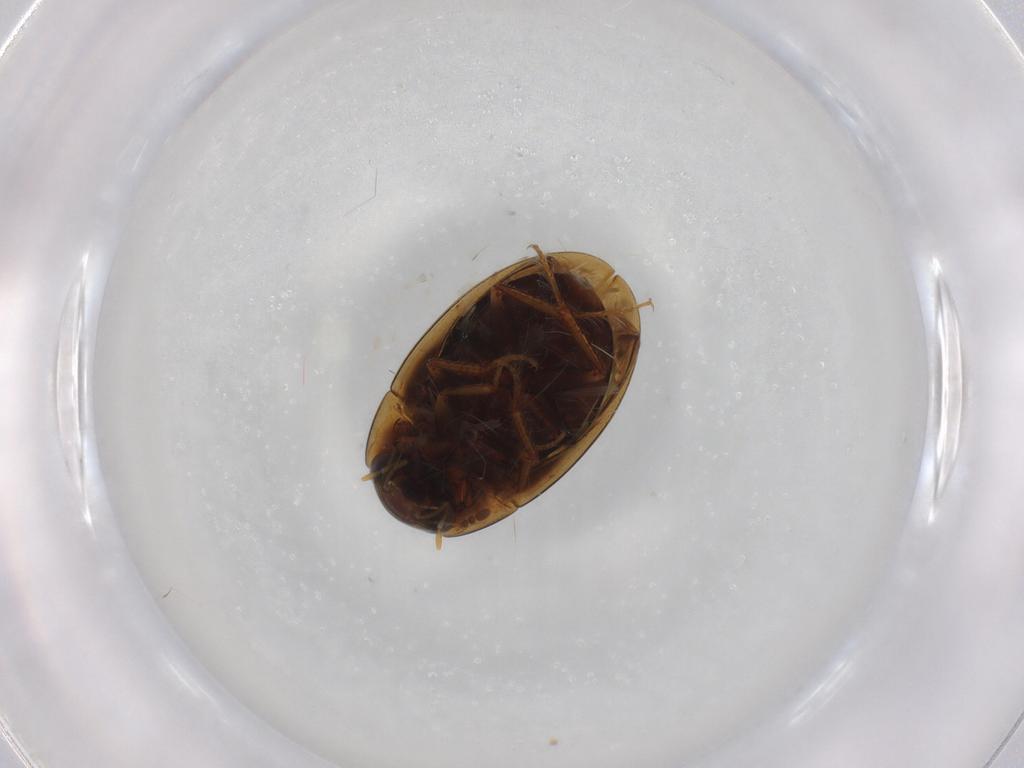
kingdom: Animalia
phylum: Arthropoda
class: Insecta
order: Coleoptera
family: Hydrophilidae
